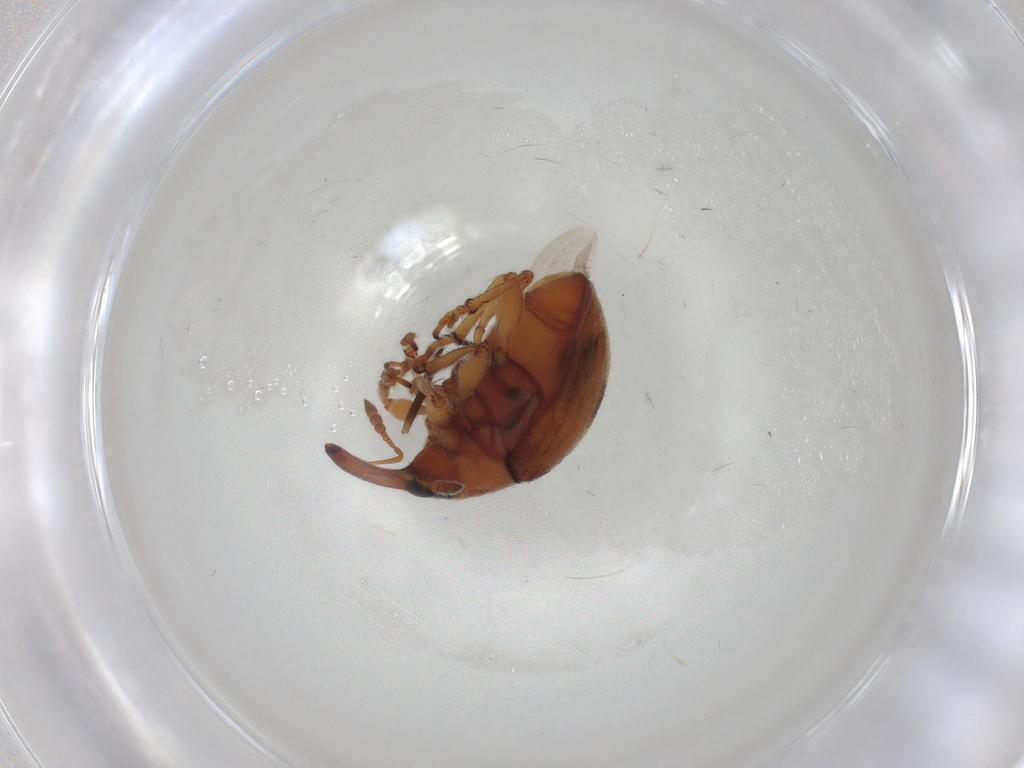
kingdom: Animalia
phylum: Arthropoda
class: Insecta
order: Coleoptera
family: Brentidae
